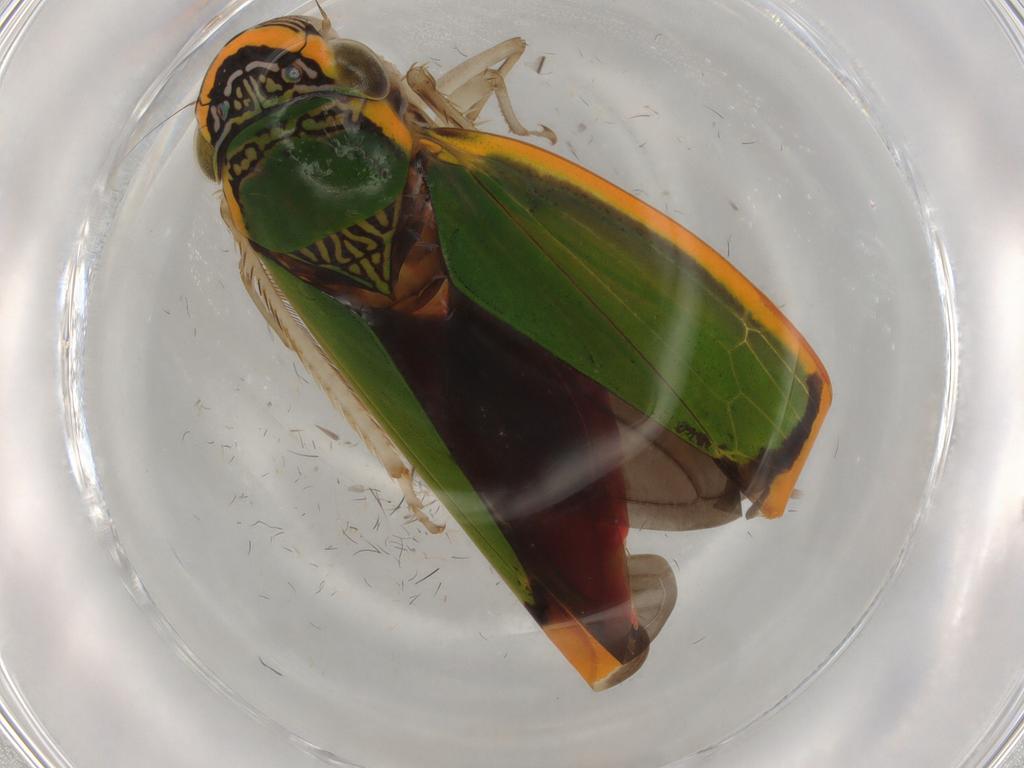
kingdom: Animalia
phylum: Arthropoda
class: Insecta
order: Hemiptera
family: Cicadellidae
